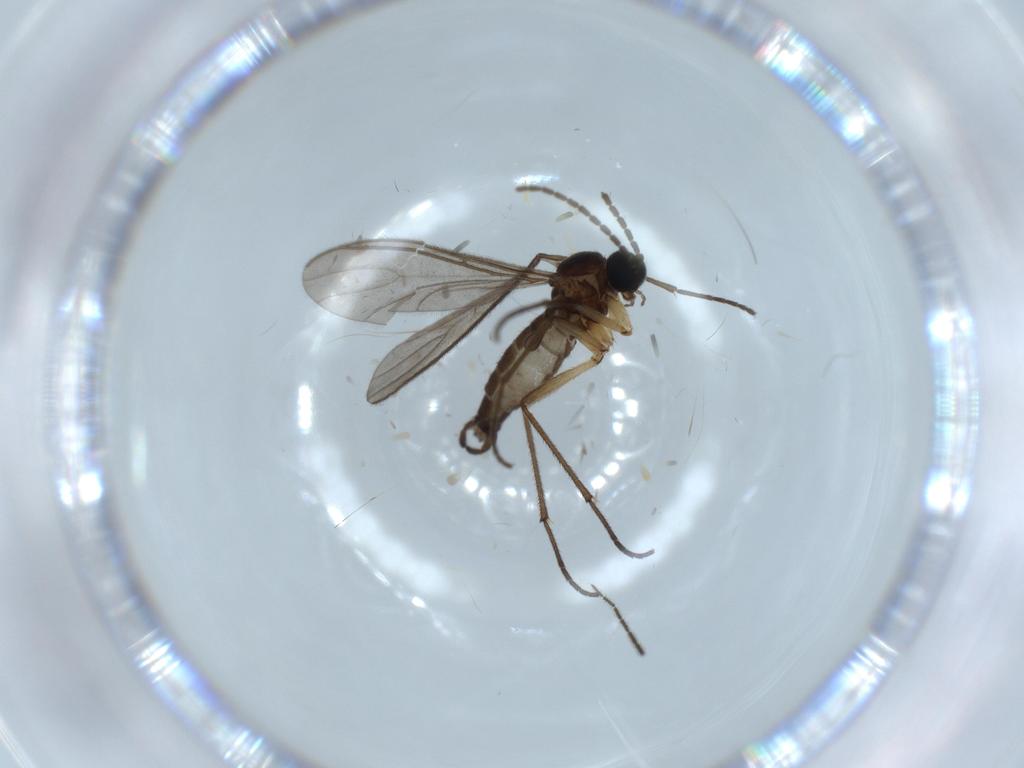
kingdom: Animalia
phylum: Arthropoda
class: Insecta
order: Diptera
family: Sciaridae
